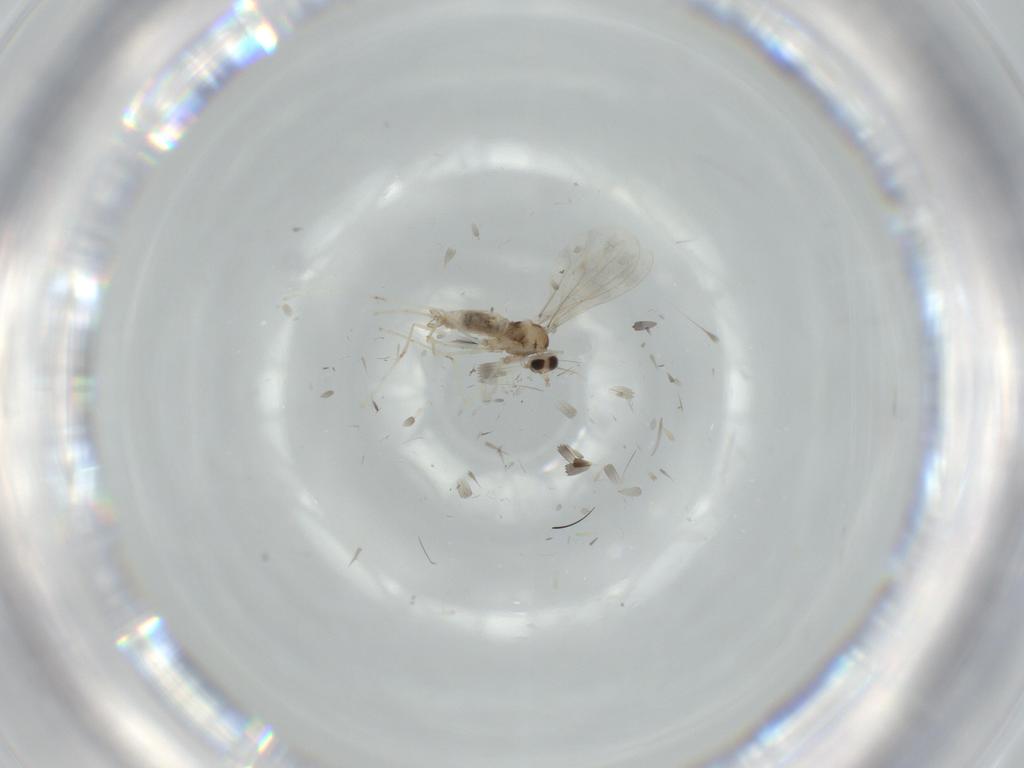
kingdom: Animalia
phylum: Arthropoda
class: Insecta
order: Diptera
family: Cecidomyiidae
